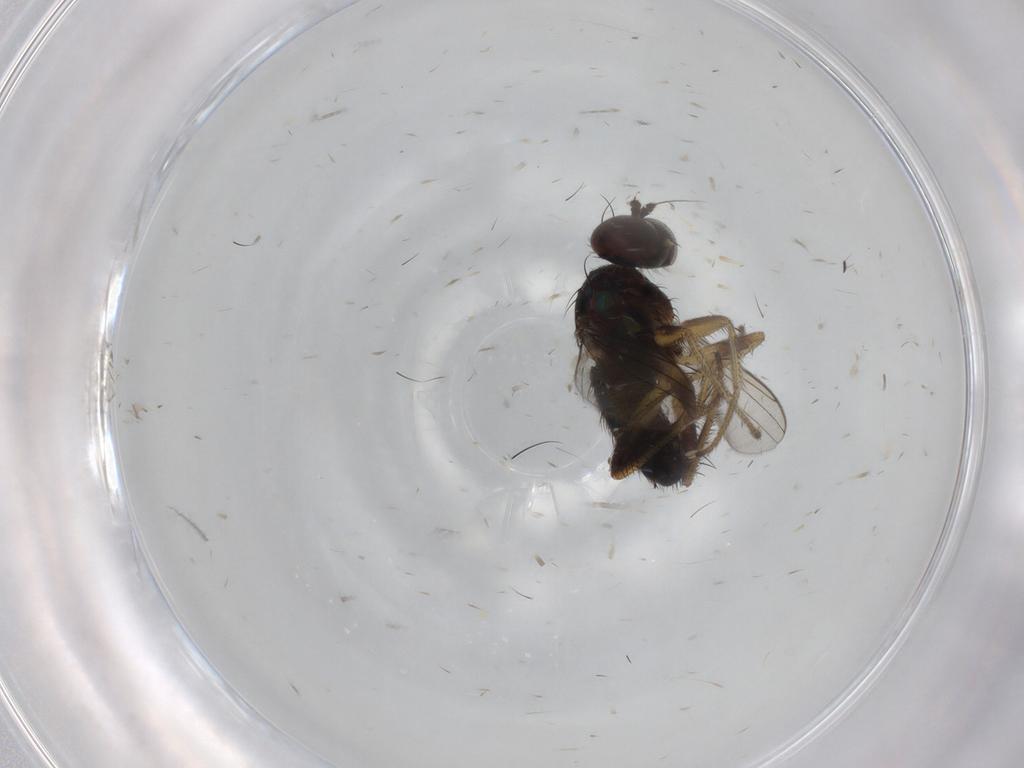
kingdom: Animalia
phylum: Arthropoda
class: Insecta
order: Diptera
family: Dolichopodidae
